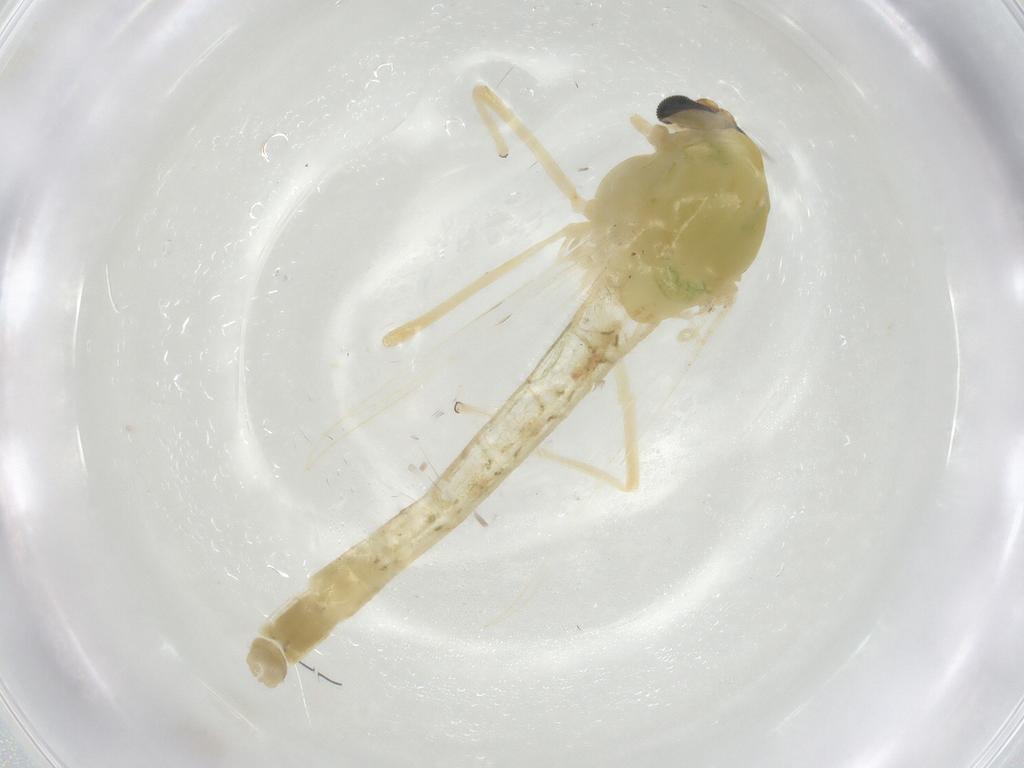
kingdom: Animalia
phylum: Arthropoda
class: Insecta
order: Diptera
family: Sciaridae
